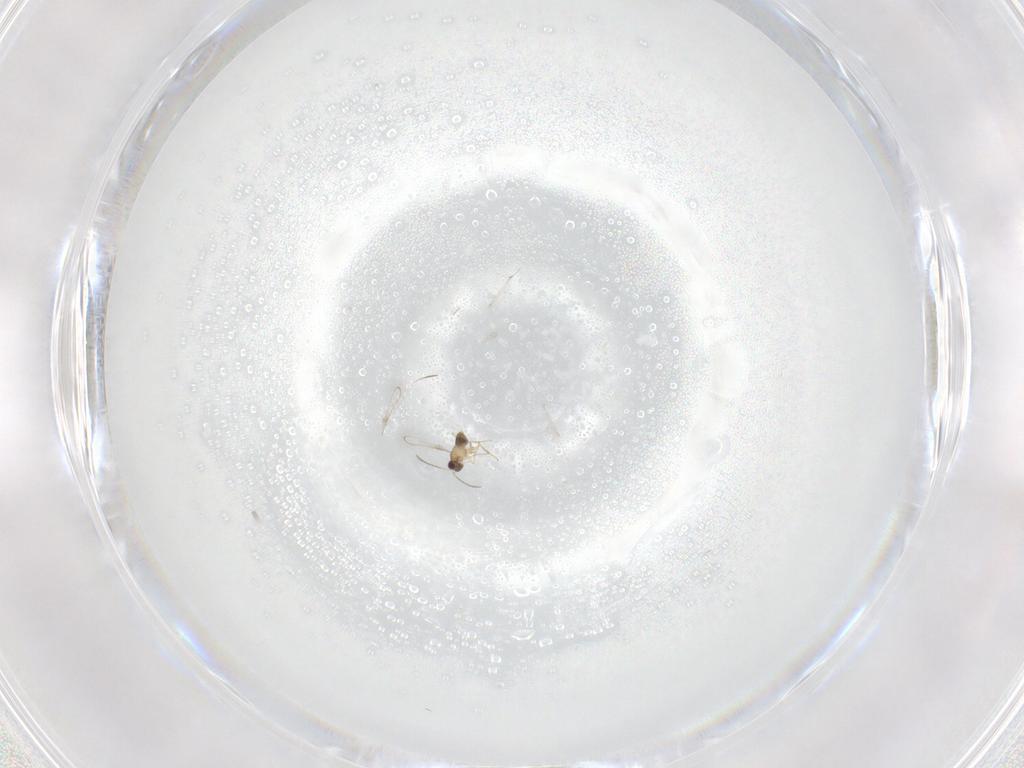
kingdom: Animalia
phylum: Arthropoda
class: Insecta
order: Hymenoptera
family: Mymaridae
